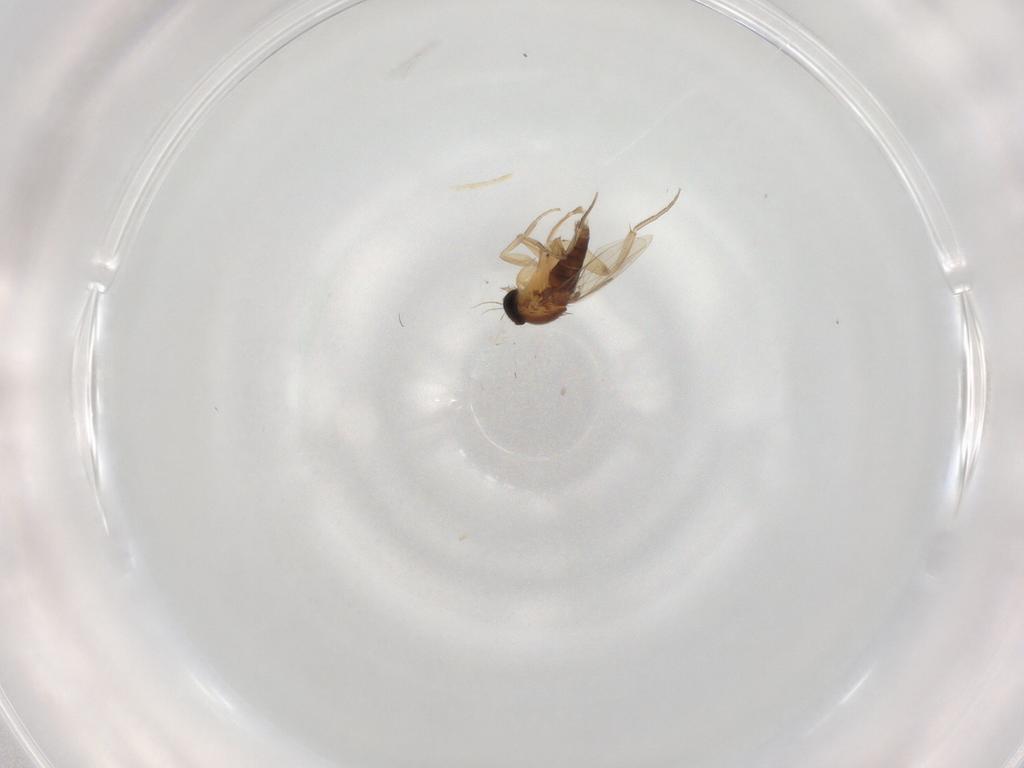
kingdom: Animalia
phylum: Arthropoda
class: Insecta
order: Diptera
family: Phoridae
